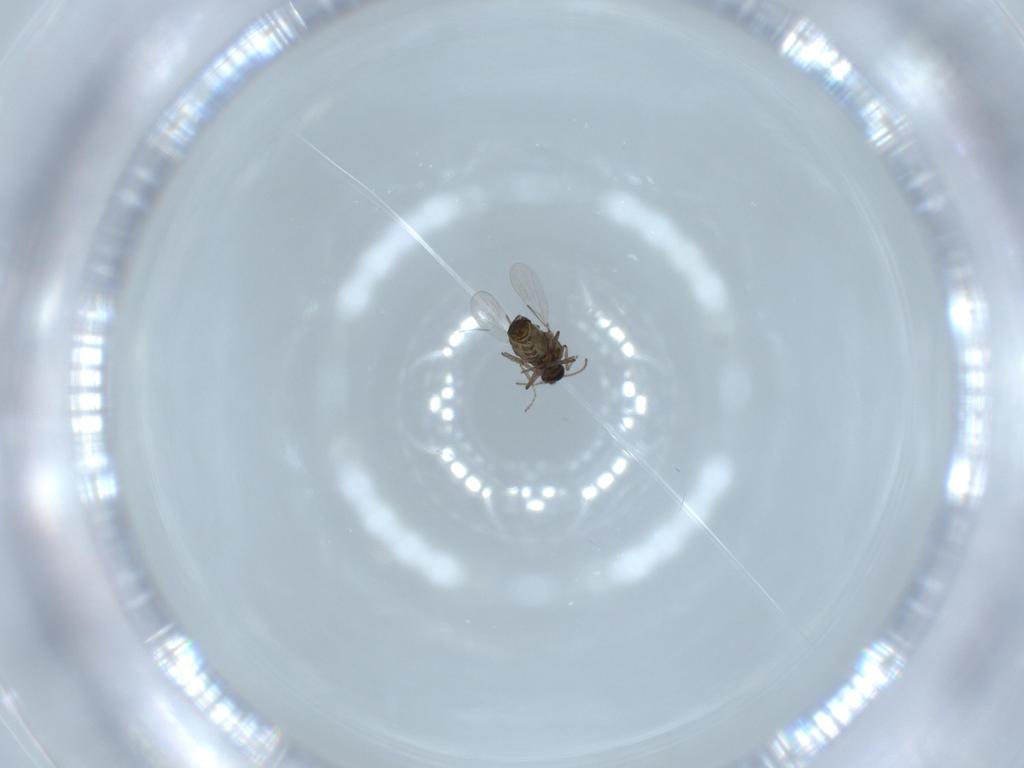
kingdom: Animalia
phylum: Arthropoda
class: Insecta
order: Diptera
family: Ceratopogonidae
